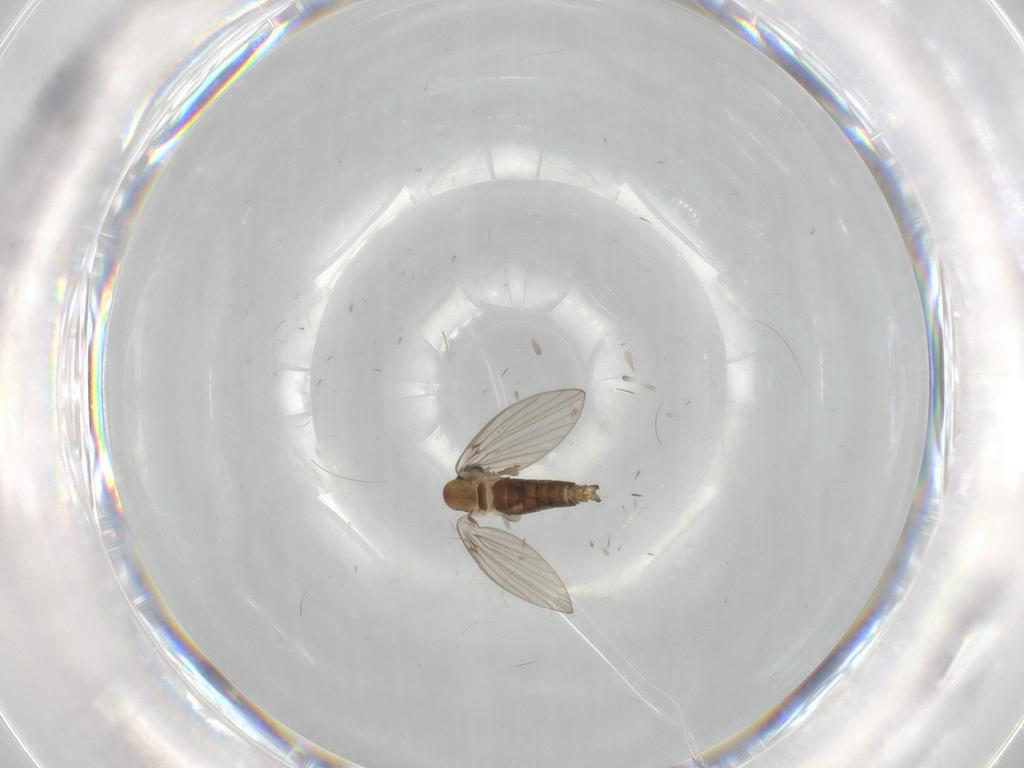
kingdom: Animalia
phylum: Arthropoda
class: Insecta
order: Diptera
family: Psychodidae
